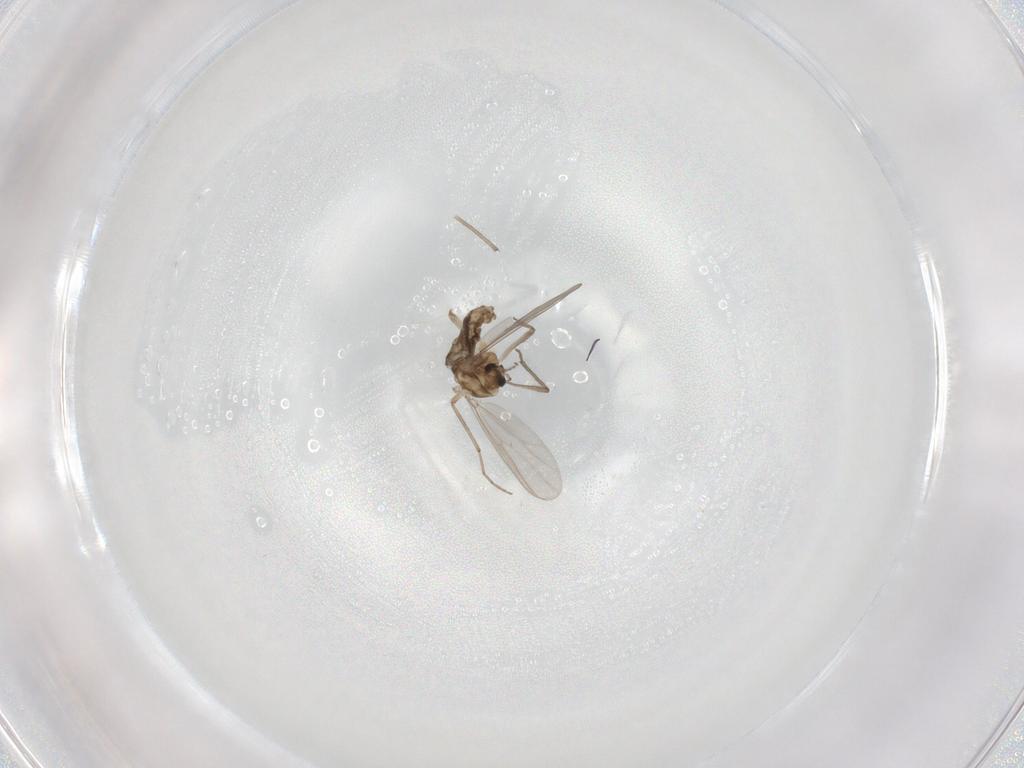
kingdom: Animalia
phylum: Arthropoda
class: Insecta
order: Diptera
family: Chironomidae
